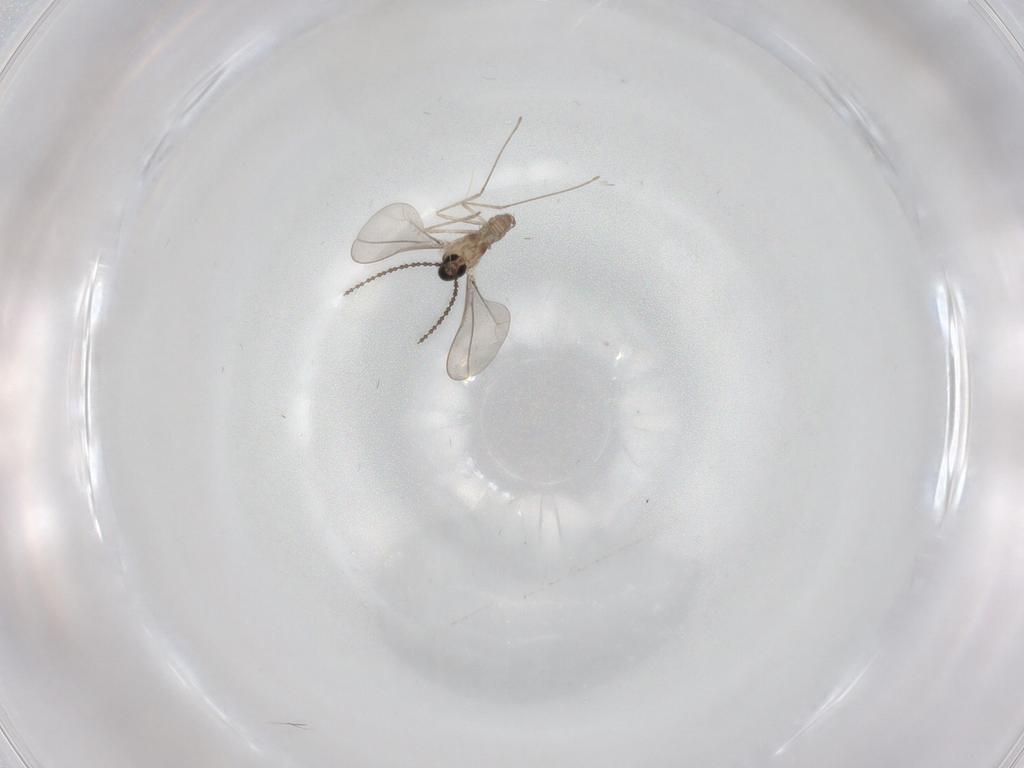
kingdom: Animalia
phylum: Arthropoda
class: Insecta
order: Diptera
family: Cecidomyiidae
